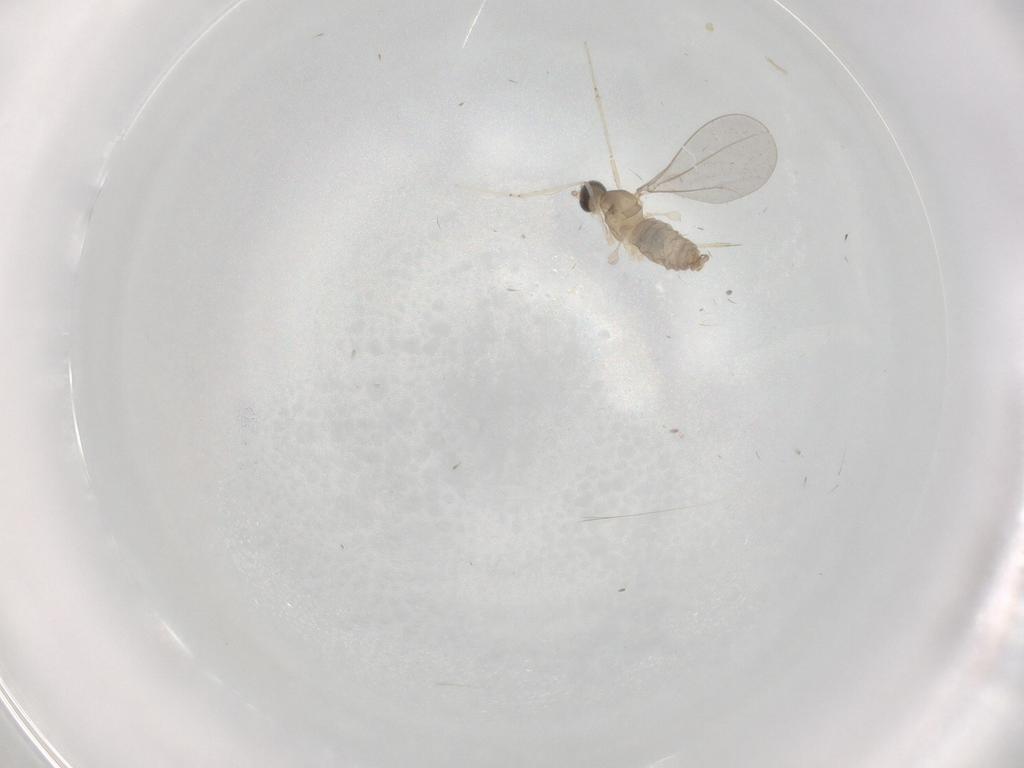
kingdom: Animalia
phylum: Arthropoda
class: Insecta
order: Diptera
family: Cecidomyiidae
